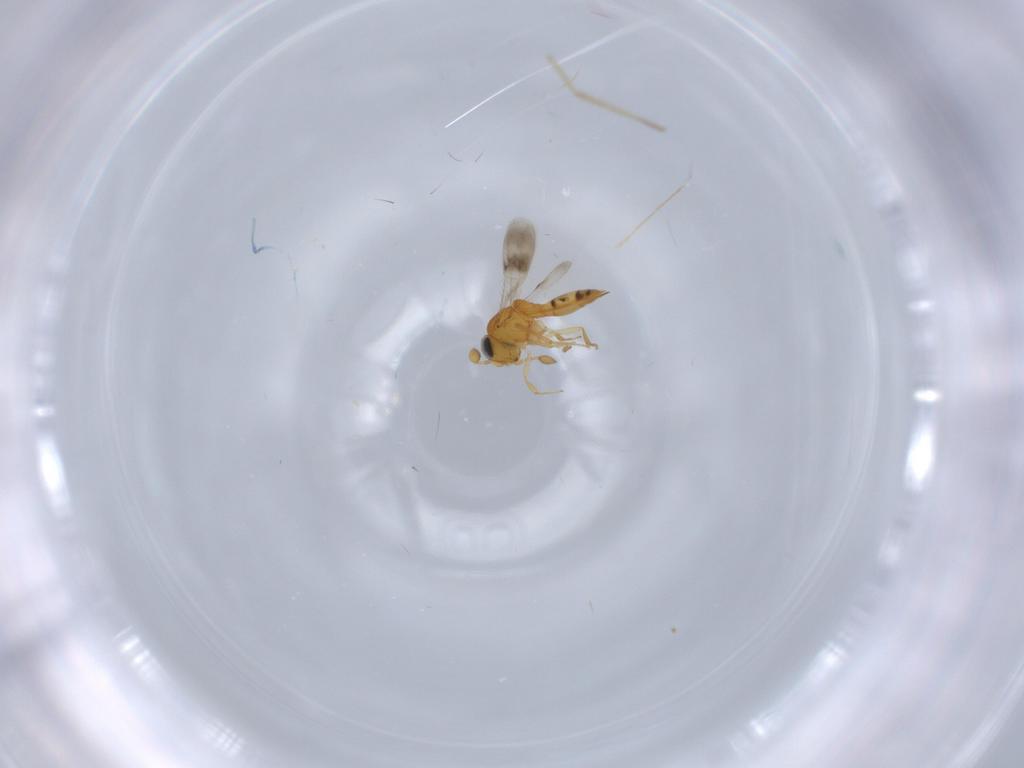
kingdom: Animalia
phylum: Arthropoda
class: Insecta
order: Hymenoptera
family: Scelionidae
